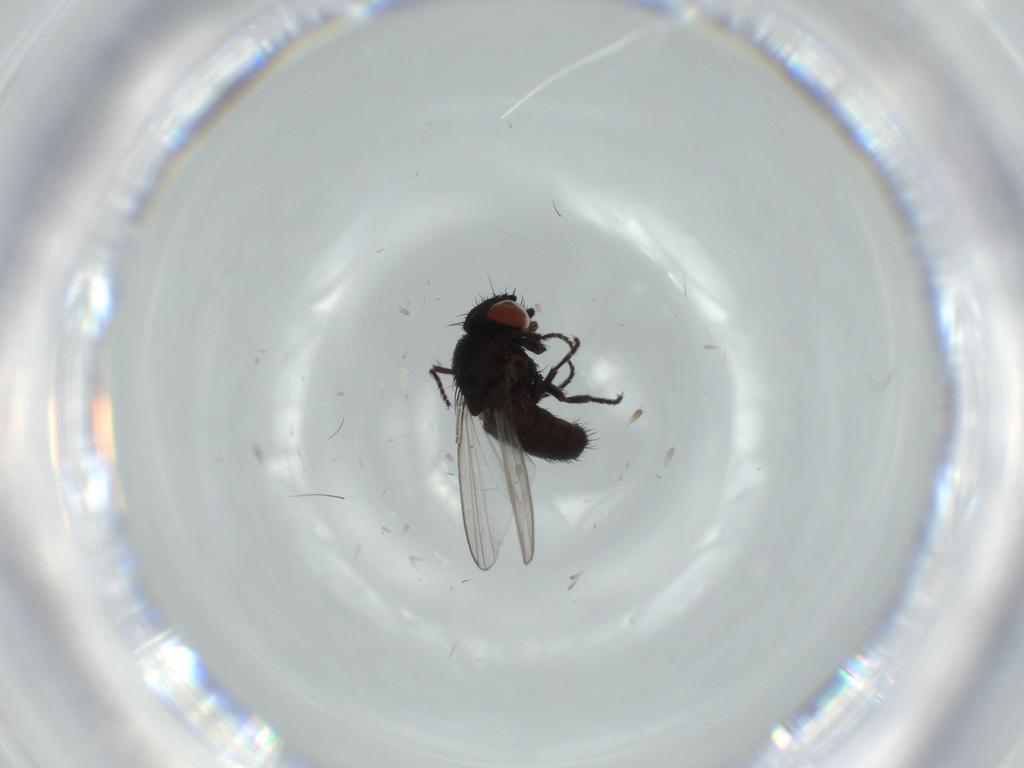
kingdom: Animalia
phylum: Arthropoda
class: Insecta
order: Diptera
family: Milichiidae
